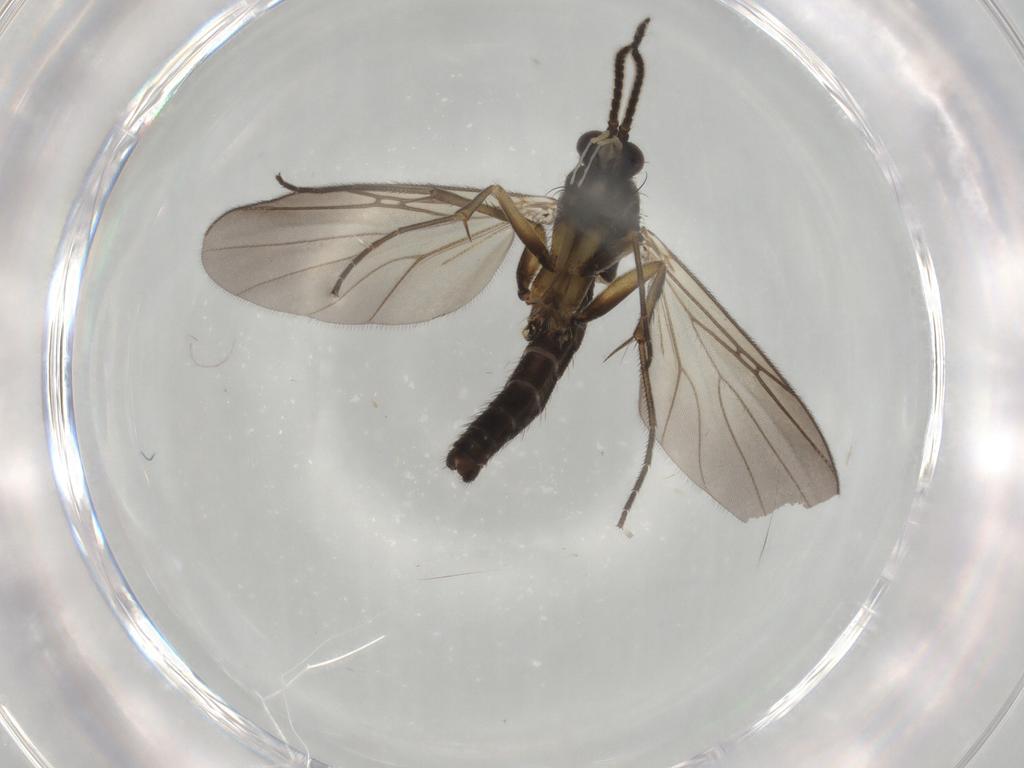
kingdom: Animalia
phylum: Arthropoda
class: Insecta
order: Diptera
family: Mycetophilidae
